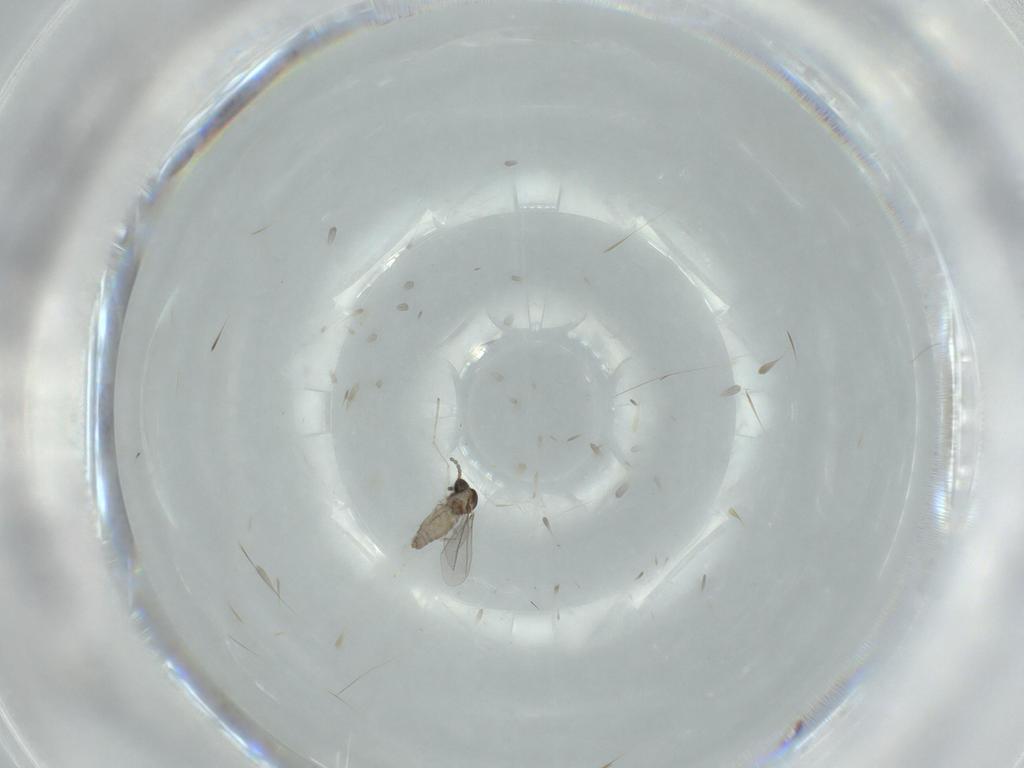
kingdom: Animalia
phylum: Arthropoda
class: Insecta
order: Diptera
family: Cecidomyiidae
